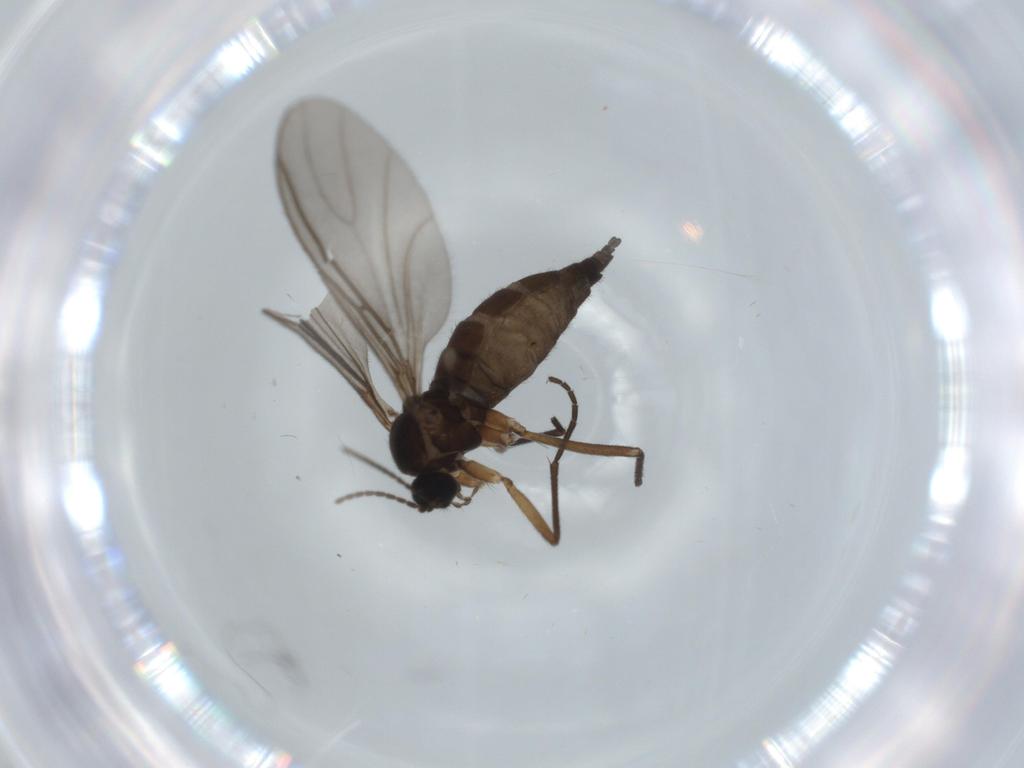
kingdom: Animalia
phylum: Arthropoda
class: Insecta
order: Diptera
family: Sciaridae
